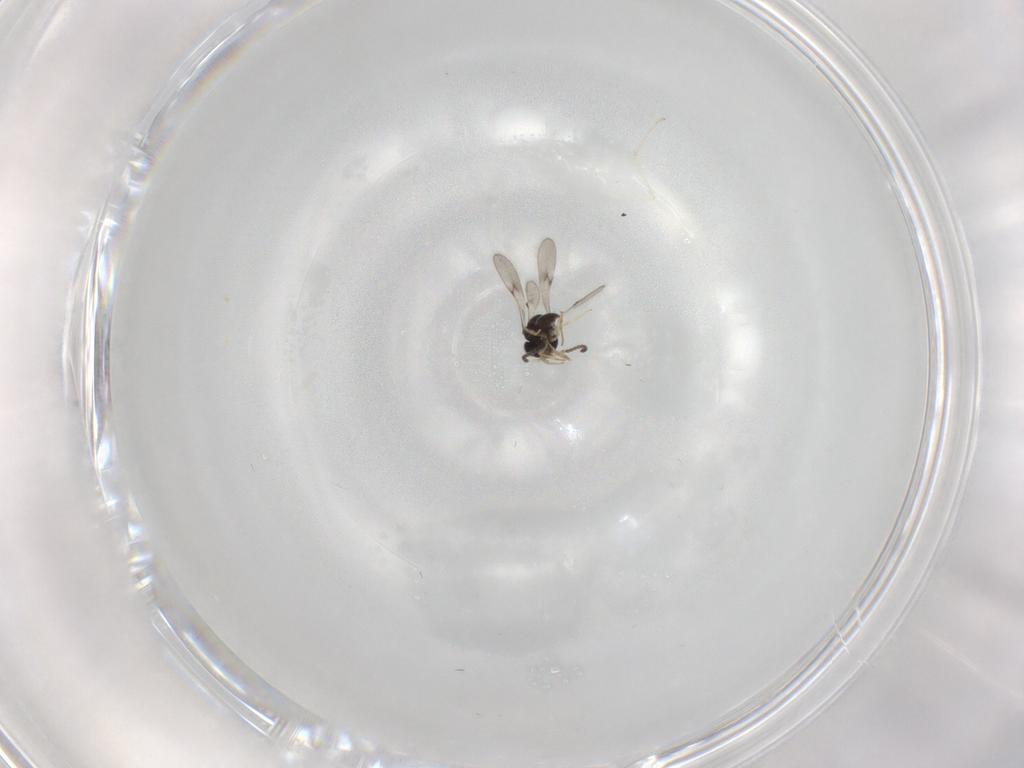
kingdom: Animalia
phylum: Arthropoda
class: Insecta
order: Hymenoptera
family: Scelionidae
